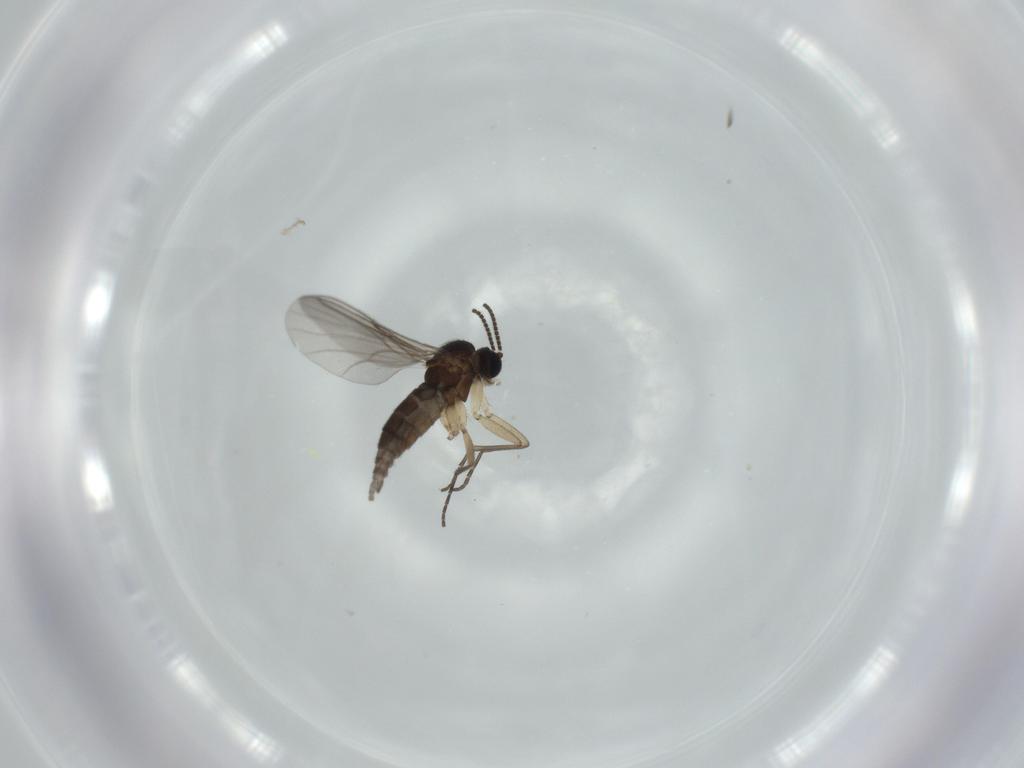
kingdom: Animalia
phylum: Arthropoda
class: Insecta
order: Diptera
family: Sciaridae
